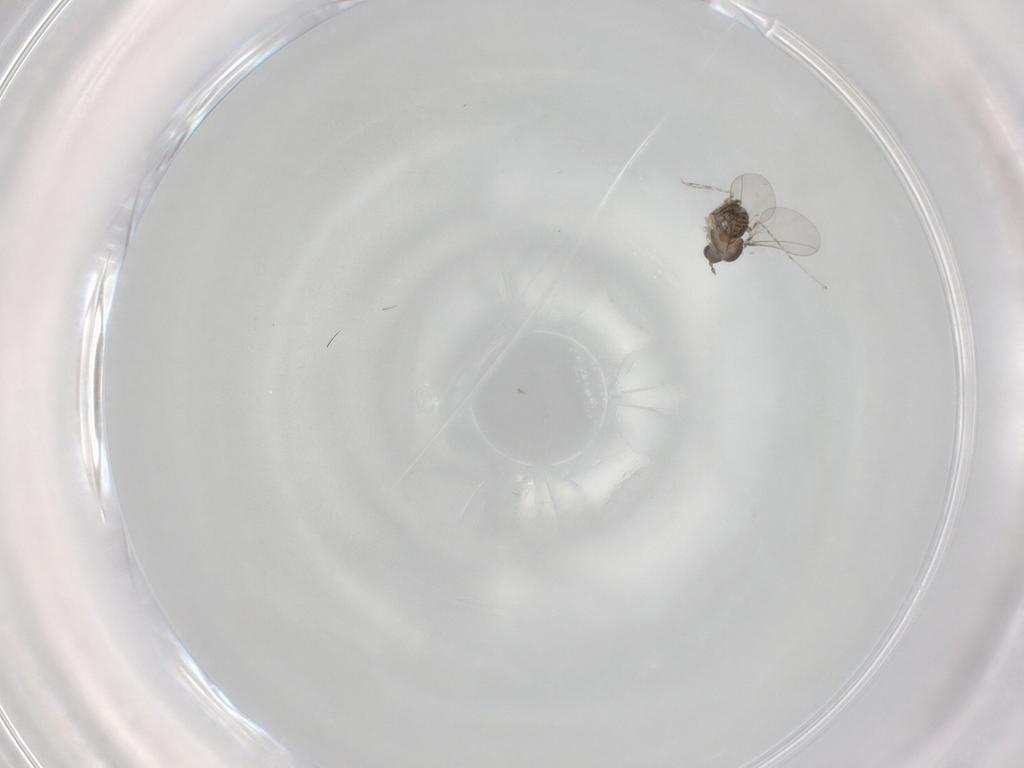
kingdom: Animalia
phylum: Arthropoda
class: Insecta
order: Diptera
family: Cecidomyiidae
